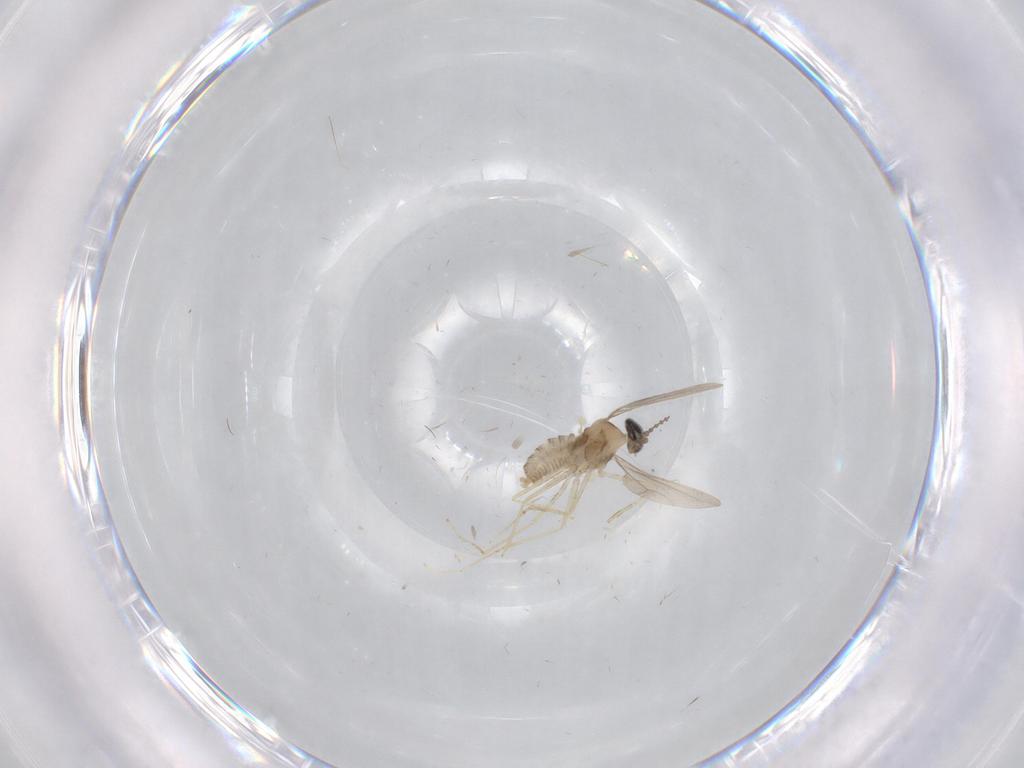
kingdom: Animalia
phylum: Arthropoda
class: Insecta
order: Diptera
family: Cecidomyiidae
